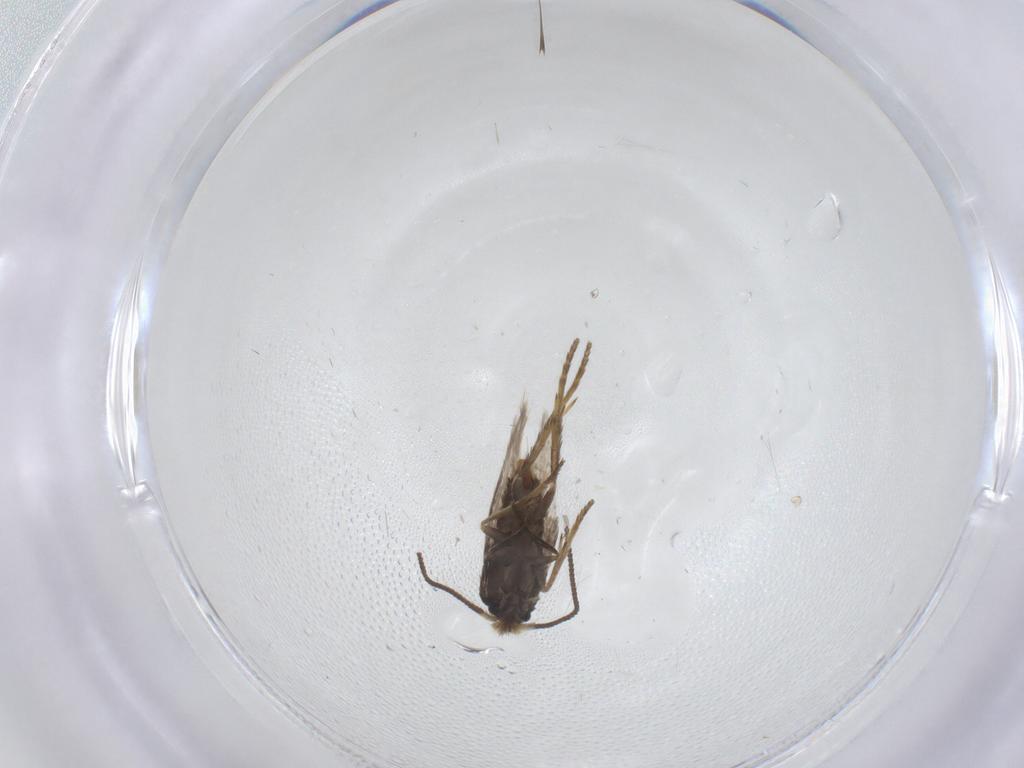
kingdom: Animalia
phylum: Arthropoda
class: Insecta
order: Lepidoptera
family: Nepticulidae
